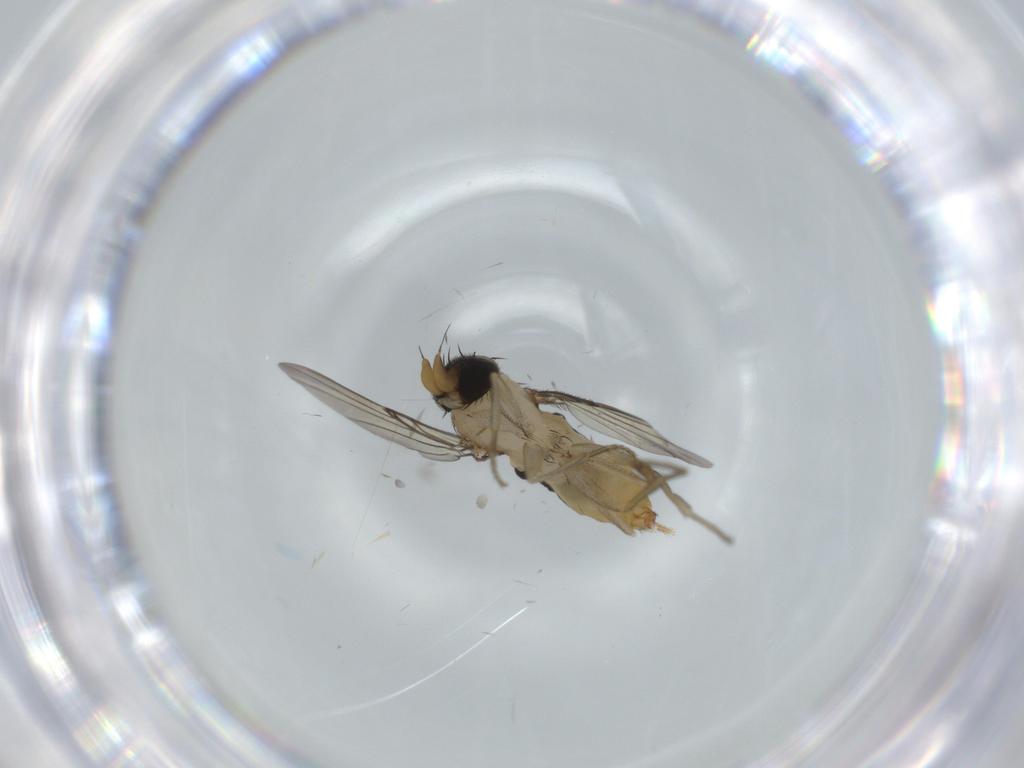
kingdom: Animalia
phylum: Arthropoda
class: Insecta
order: Diptera
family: Phoridae
